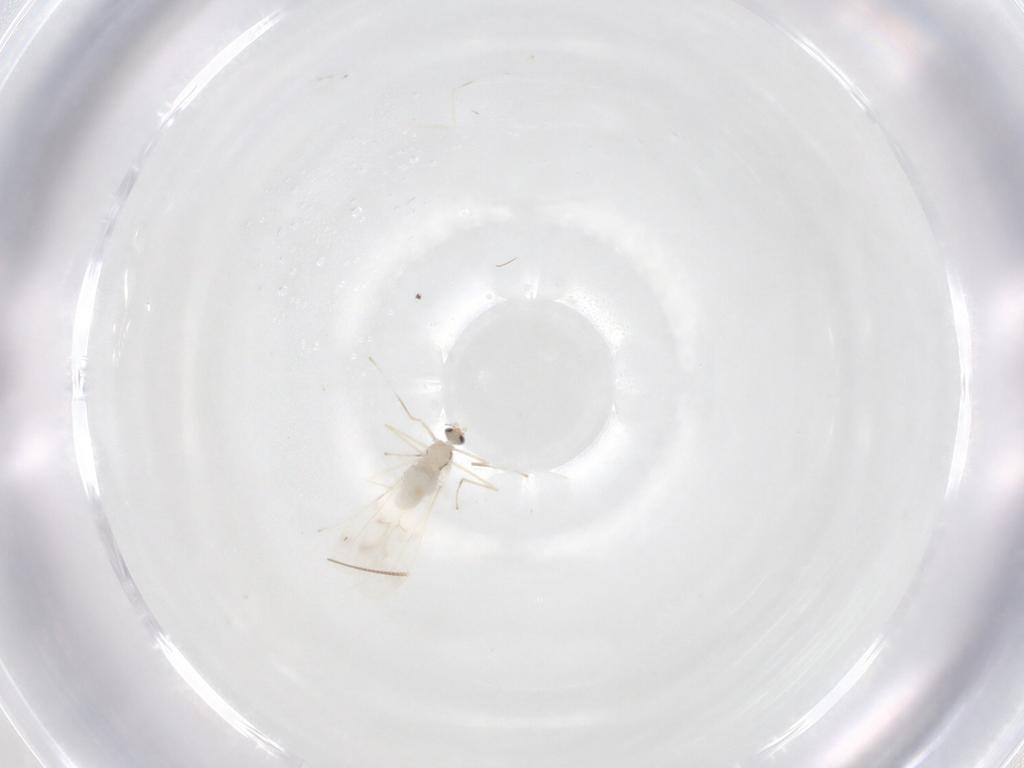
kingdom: Animalia
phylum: Arthropoda
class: Insecta
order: Diptera
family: Cecidomyiidae
